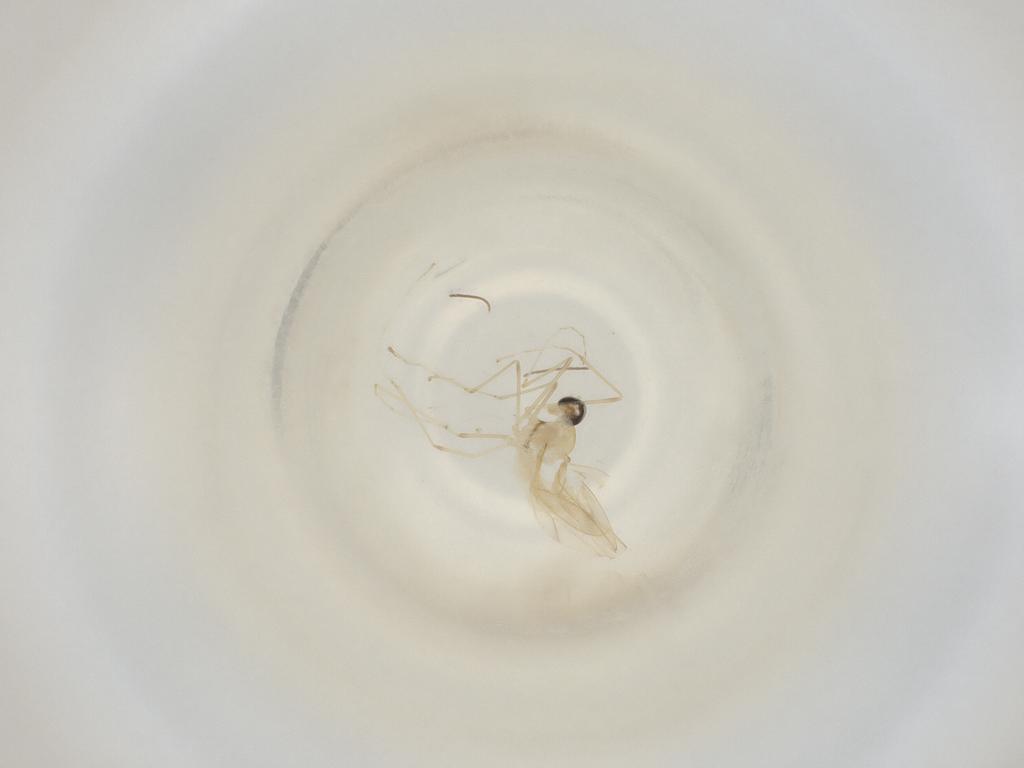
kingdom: Animalia
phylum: Arthropoda
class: Insecta
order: Diptera
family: Cecidomyiidae
